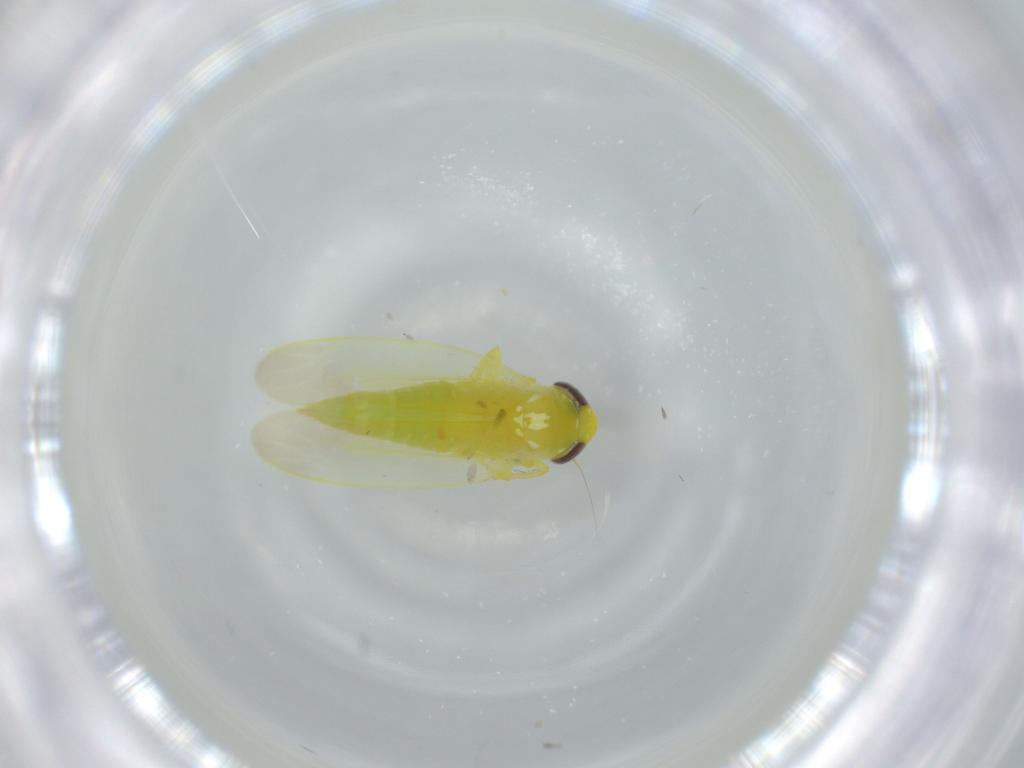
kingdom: Animalia
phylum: Arthropoda
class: Insecta
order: Hemiptera
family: Cicadellidae
